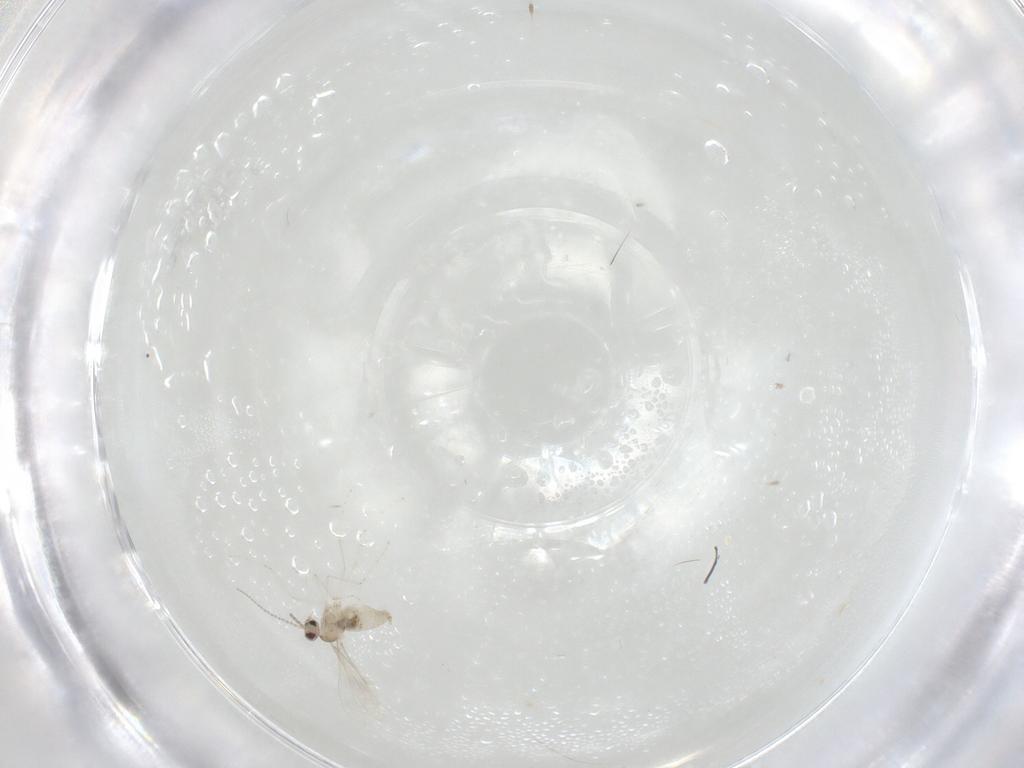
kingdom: Animalia
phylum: Arthropoda
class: Insecta
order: Diptera
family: Cecidomyiidae
